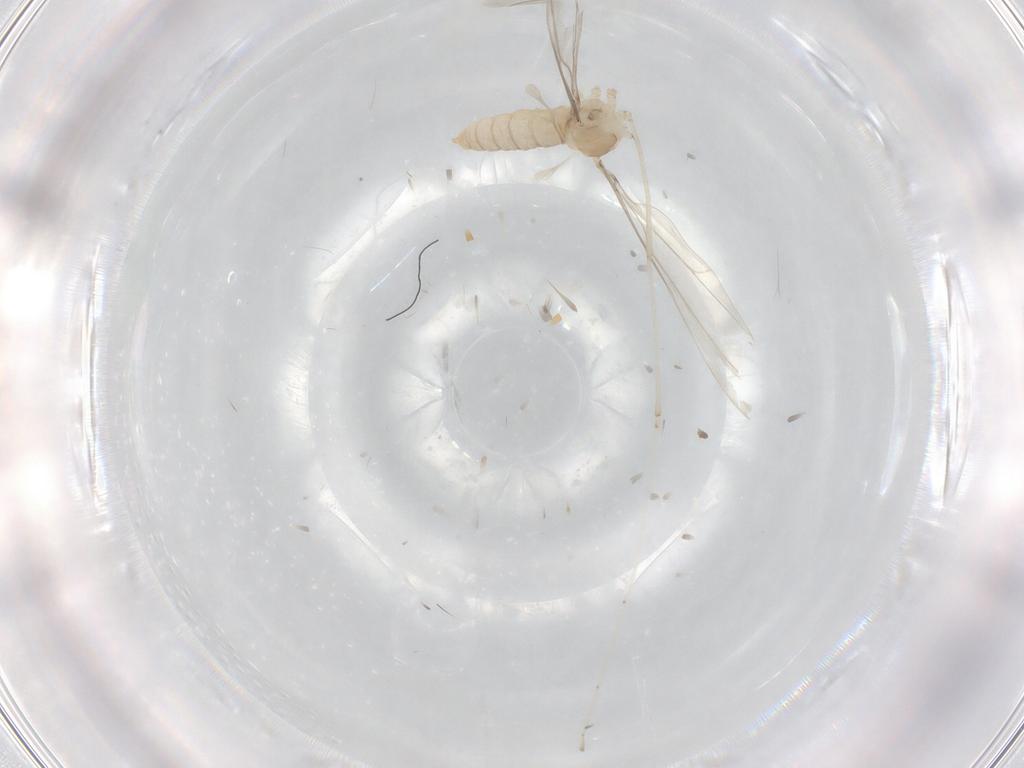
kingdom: Animalia
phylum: Arthropoda
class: Insecta
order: Diptera
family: Cecidomyiidae
